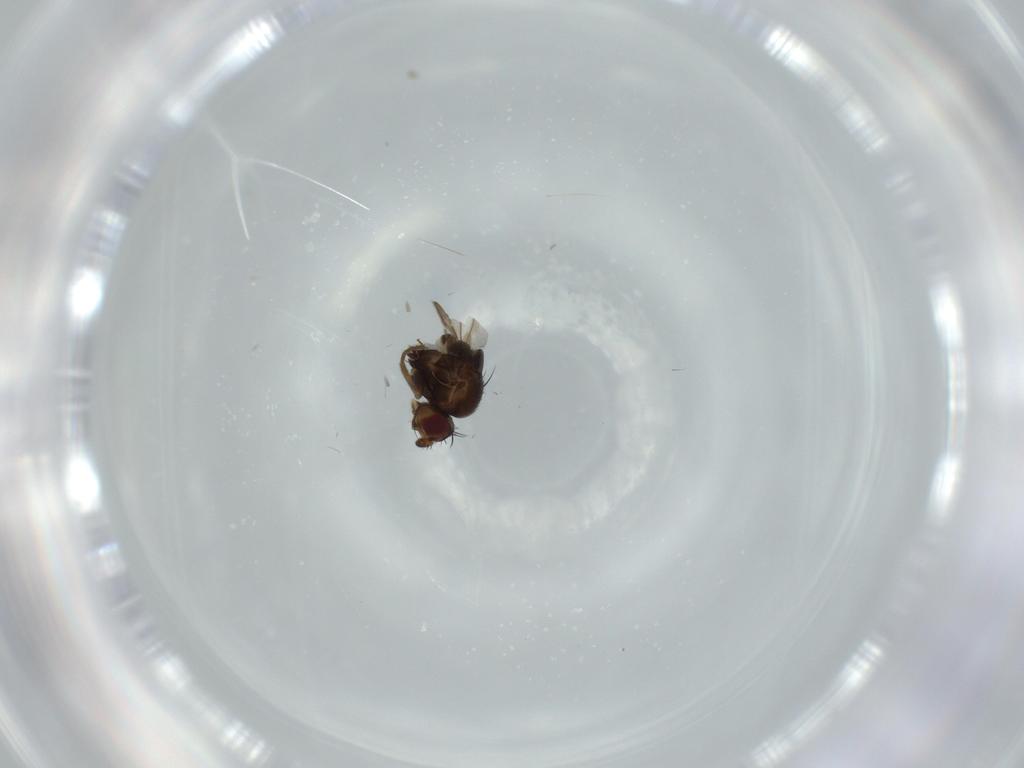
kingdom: Animalia
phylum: Arthropoda
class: Insecta
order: Diptera
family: Sphaeroceridae
